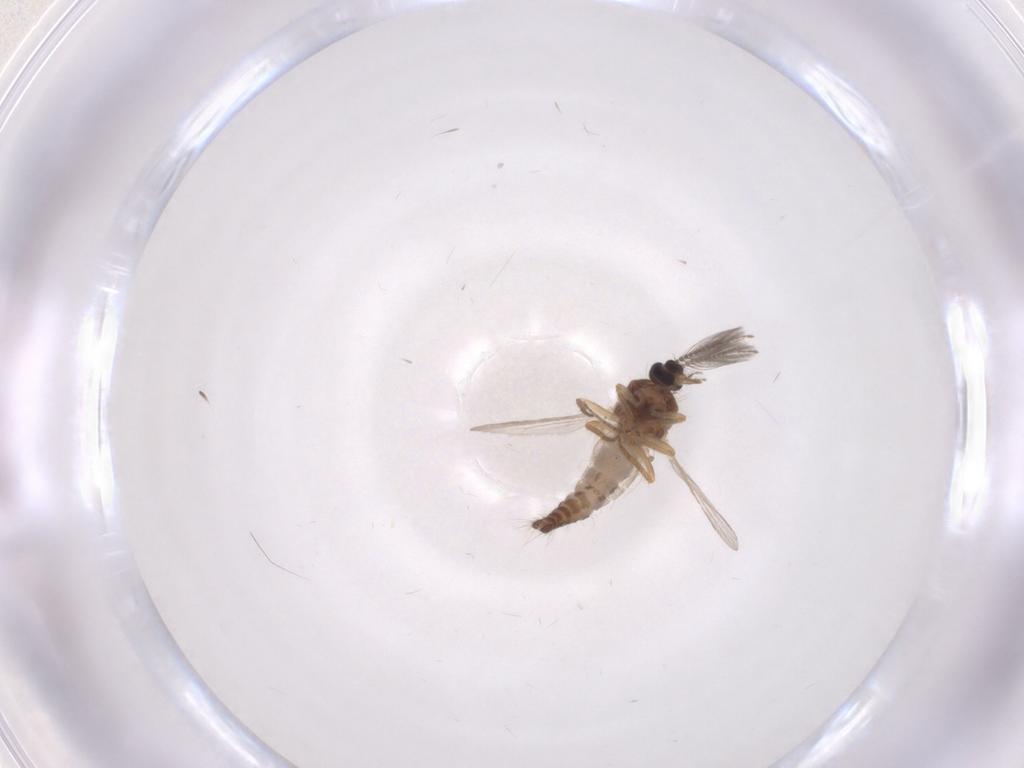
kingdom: Animalia
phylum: Arthropoda
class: Insecta
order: Diptera
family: Ceratopogonidae
